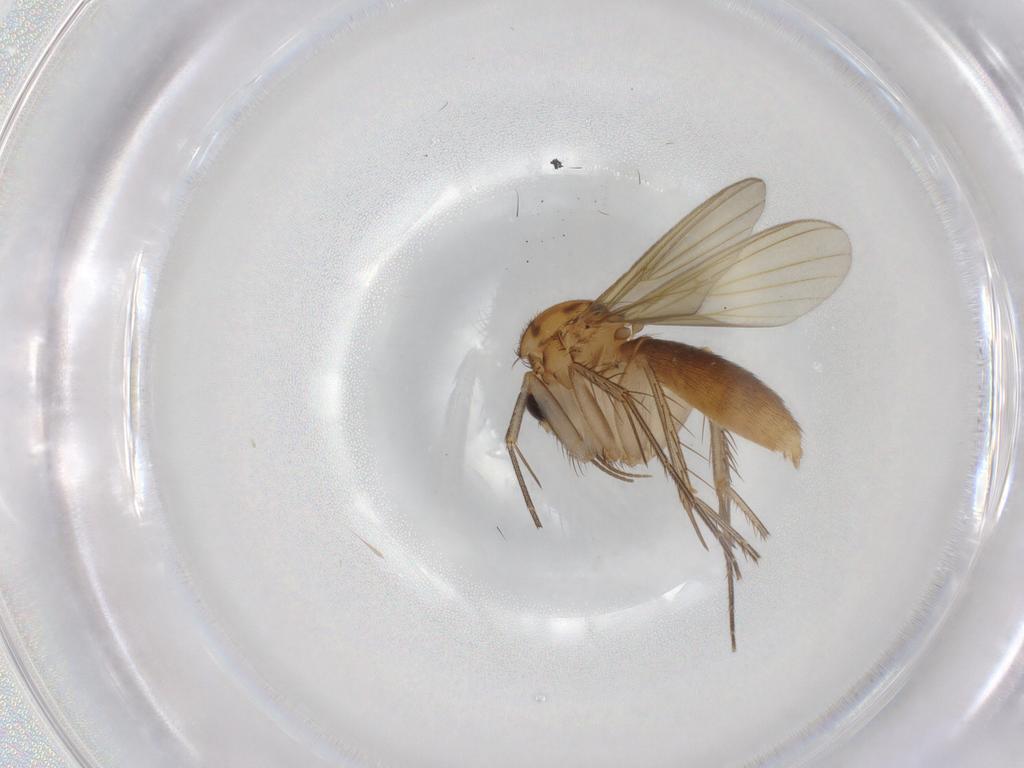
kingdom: Animalia
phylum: Arthropoda
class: Insecta
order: Diptera
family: Mycetophilidae
